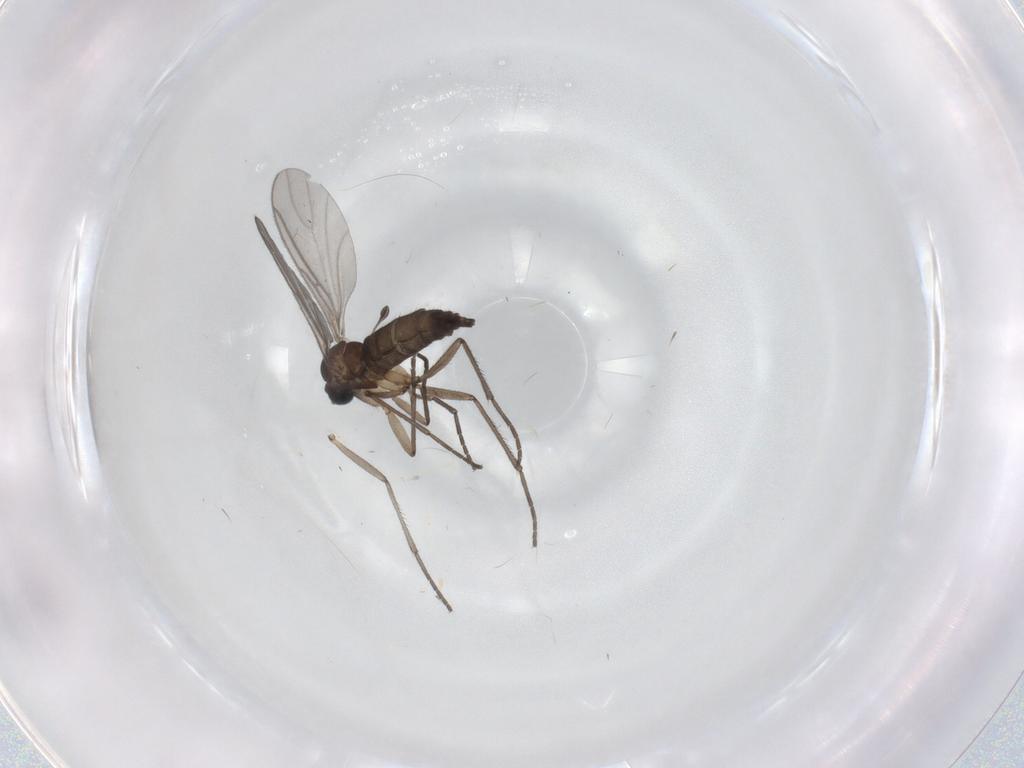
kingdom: Animalia
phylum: Arthropoda
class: Insecta
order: Diptera
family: Sciaridae
